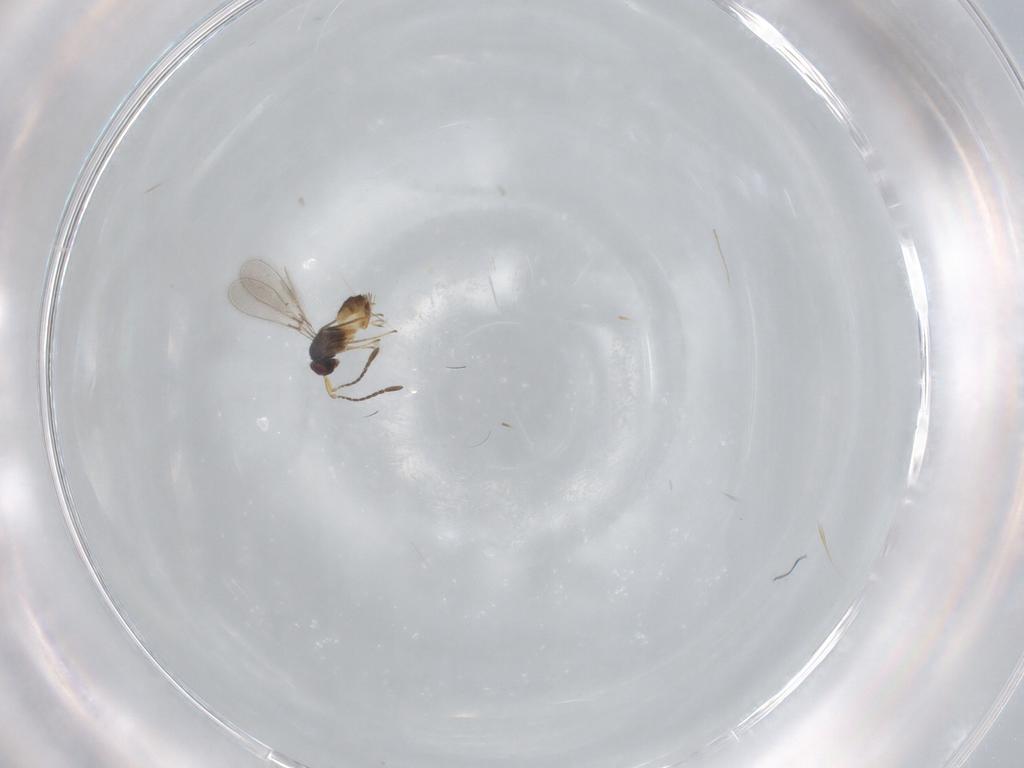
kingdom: Animalia
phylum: Arthropoda
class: Insecta
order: Hymenoptera
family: Mymaridae
